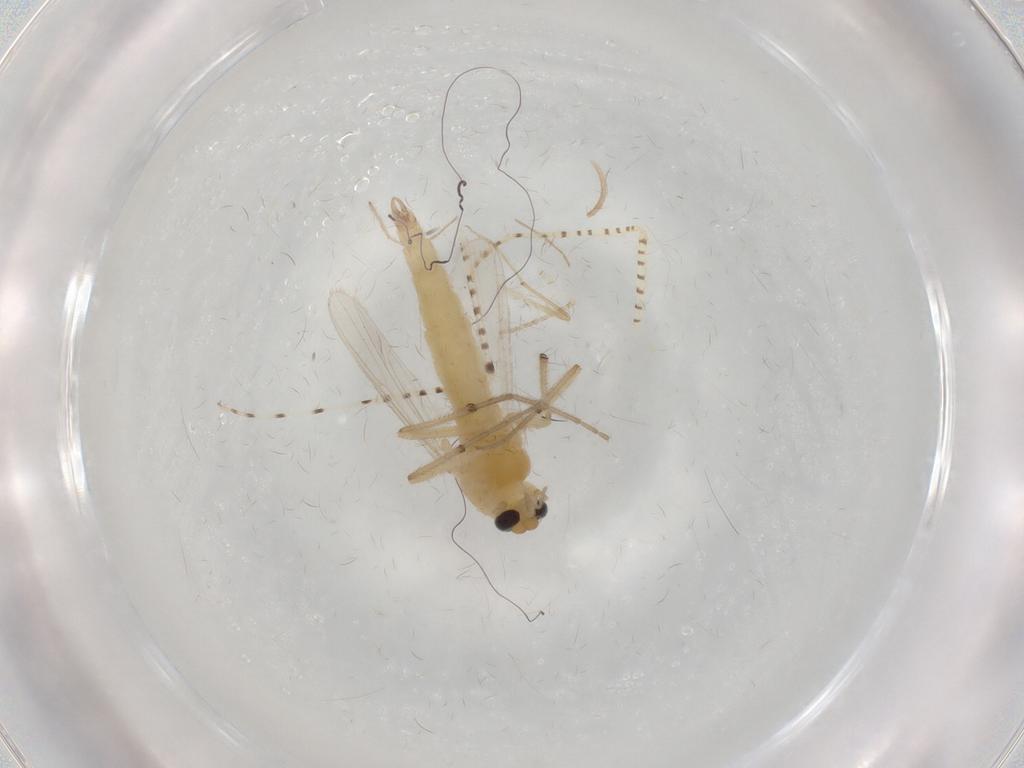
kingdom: Animalia
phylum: Arthropoda
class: Insecta
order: Diptera
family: Chironomidae
